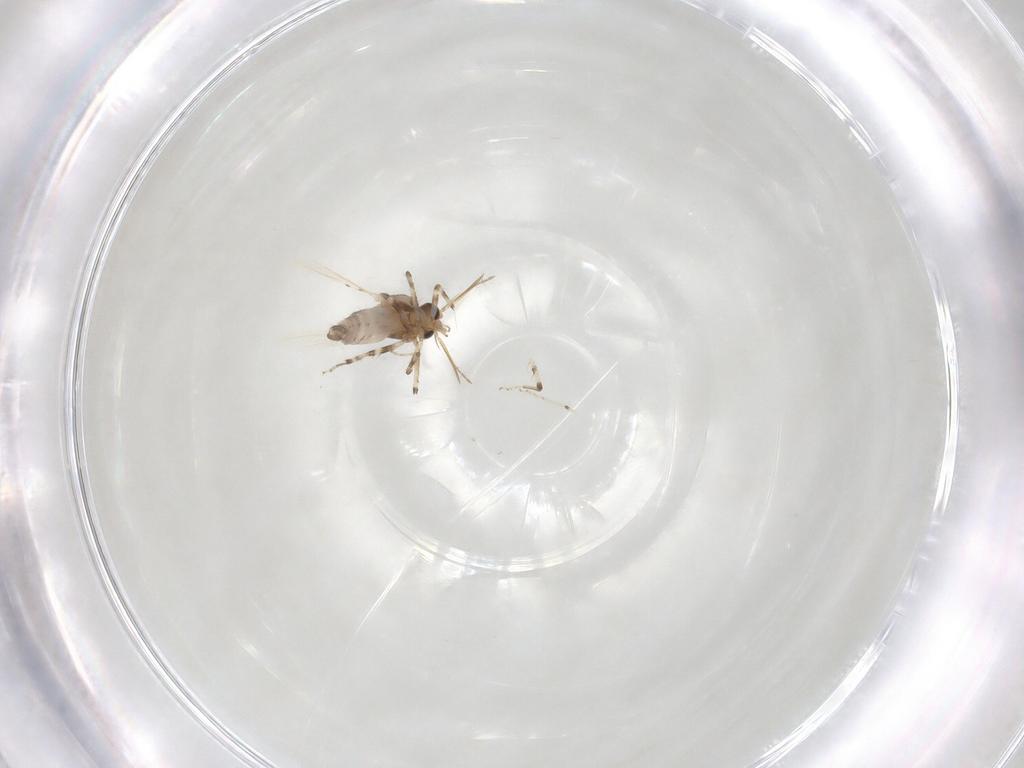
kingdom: Animalia
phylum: Arthropoda
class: Insecta
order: Diptera
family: Ceratopogonidae
